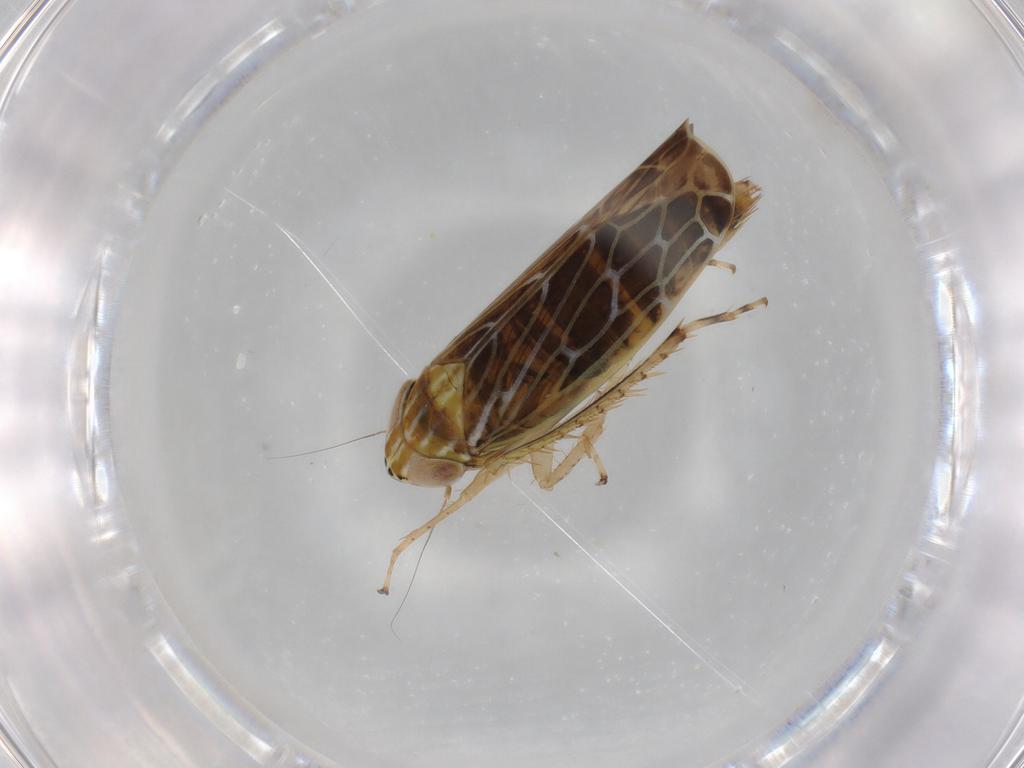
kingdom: Animalia
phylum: Arthropoda
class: Insecta
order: Hemiptera
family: Cicadellidae
